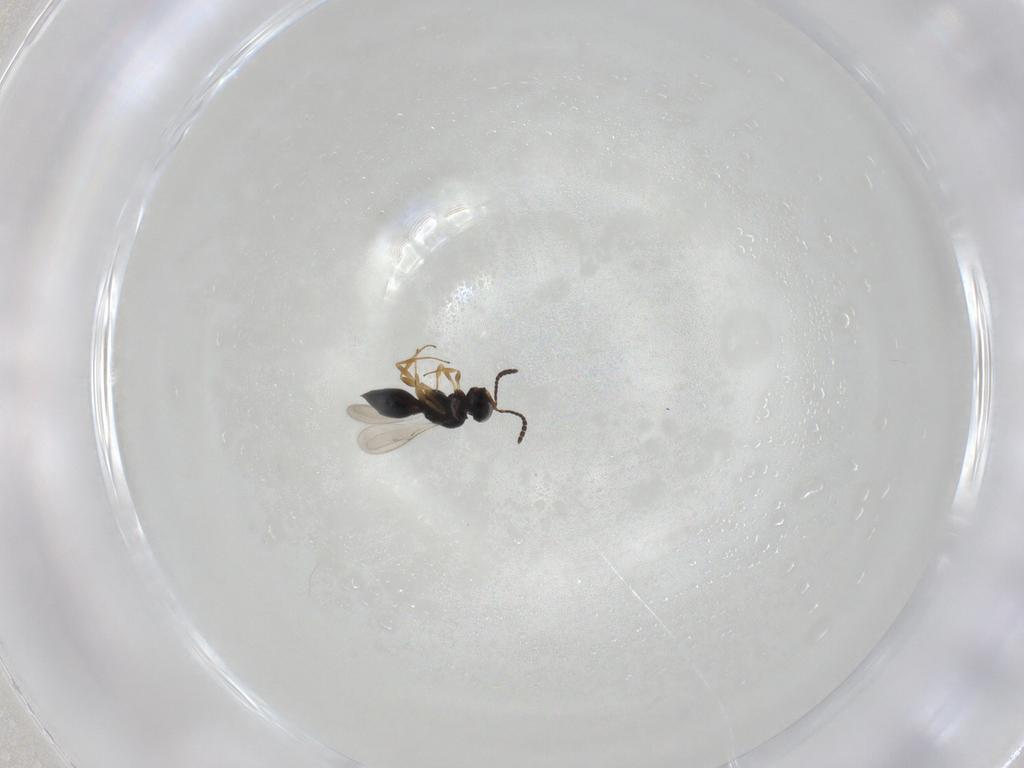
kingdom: Animalia
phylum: Arthropoda
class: Insecta
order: Hymenoptera
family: Scelionidae
